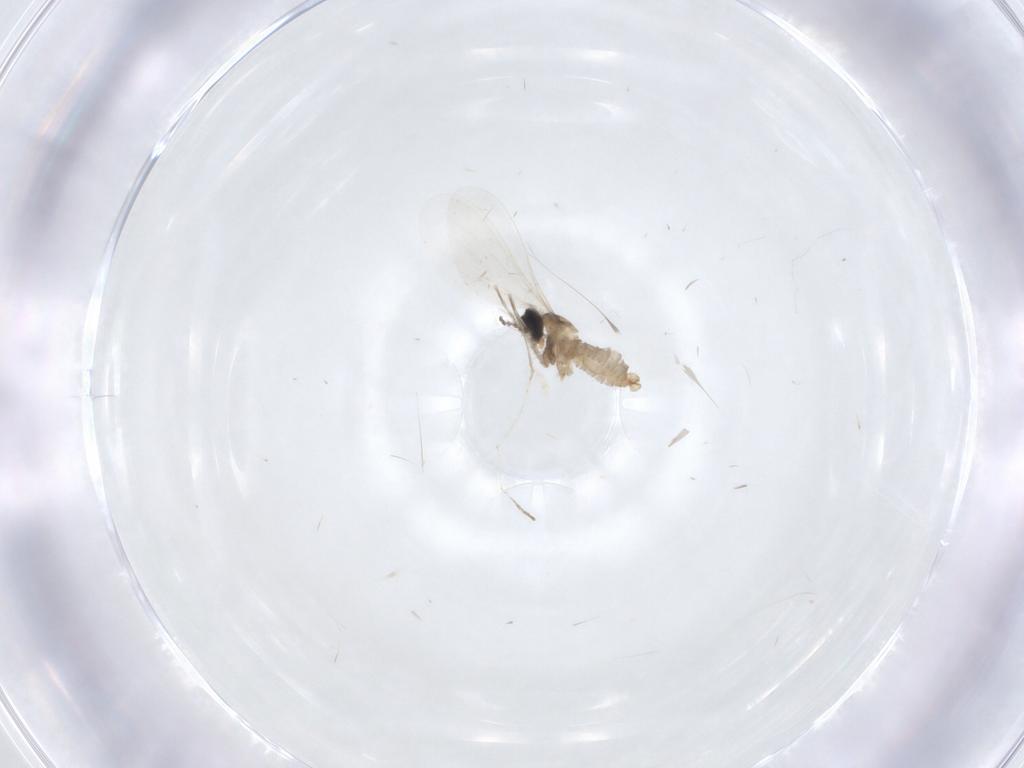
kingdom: Animalia
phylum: Arthropoda
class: Insecta
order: Diptera
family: Cecidomyiidae
